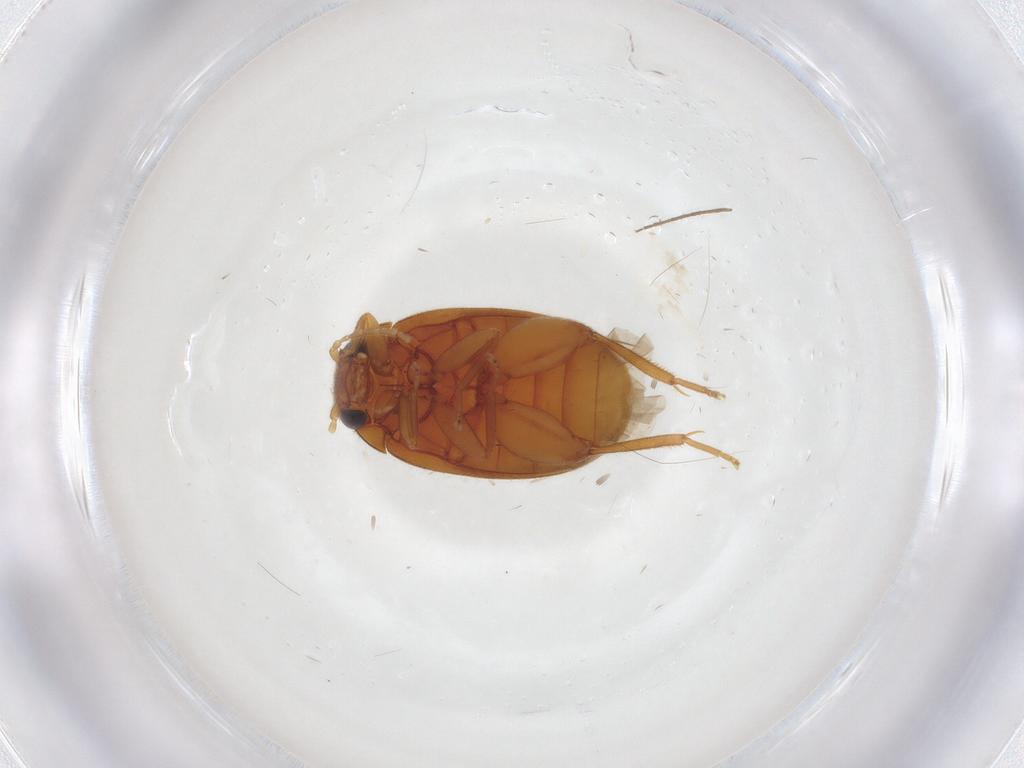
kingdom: Animalia
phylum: Arthropoda
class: Insecta
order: Coleoptera
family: Scirtidae
